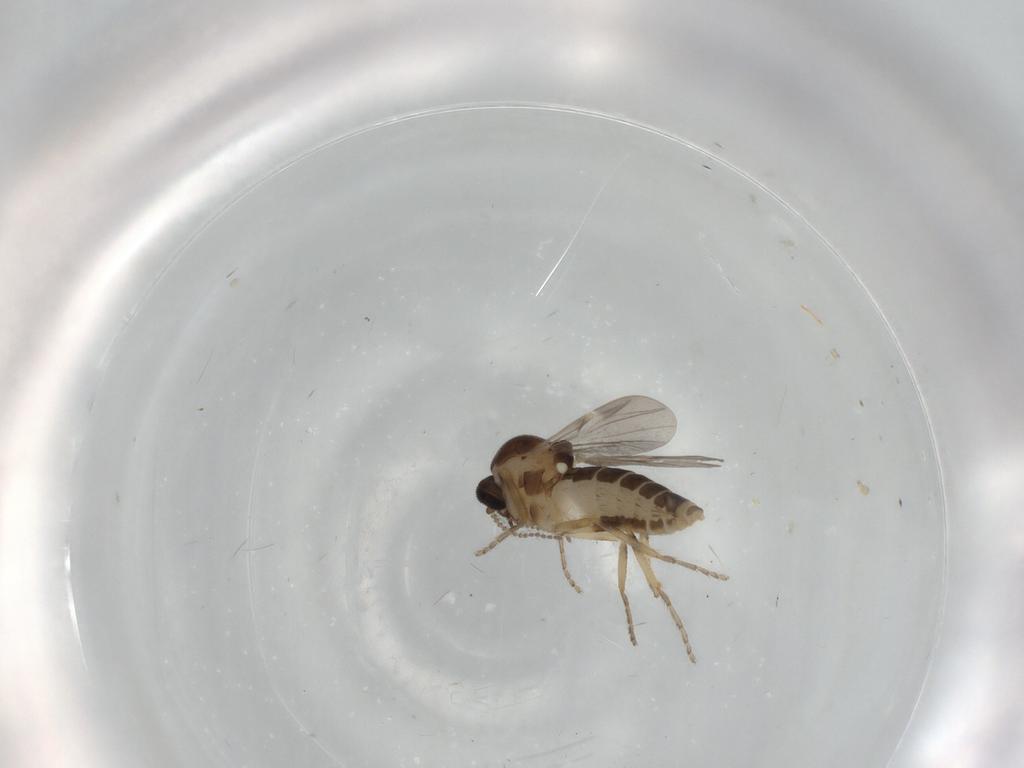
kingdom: Animalia
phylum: Arthropoda
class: Insecta
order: Diptera
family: Ceratopogonidae
